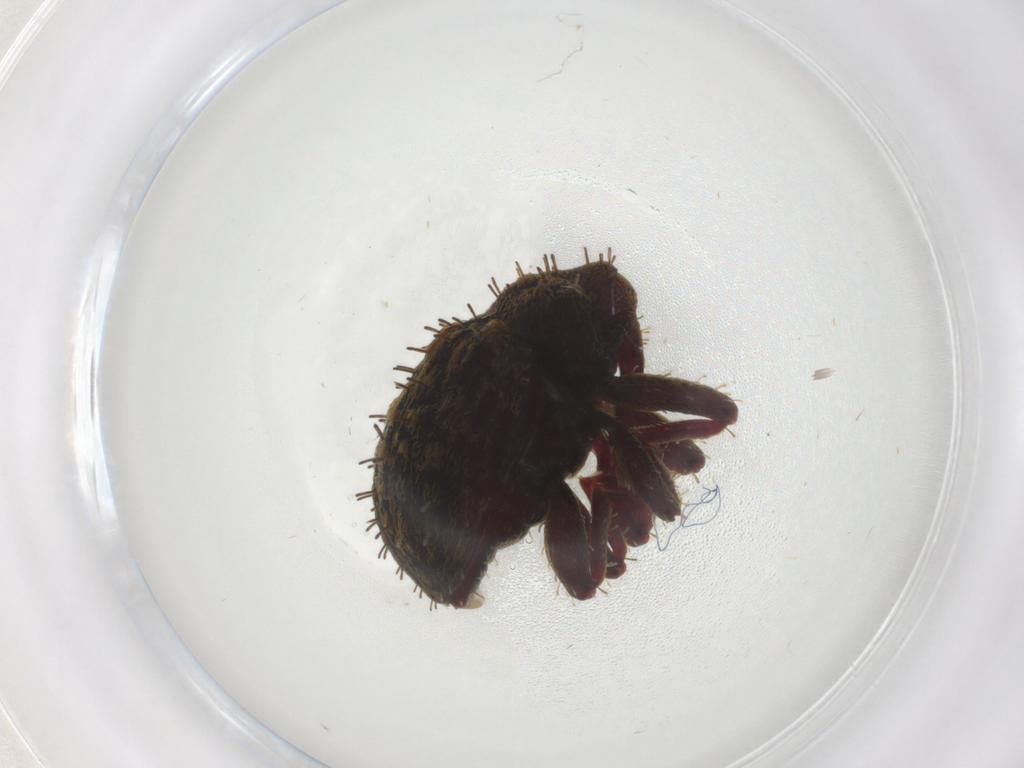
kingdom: Animalia
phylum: Arthropoda
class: Insecta
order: Coleoptera
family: Curculionidae
